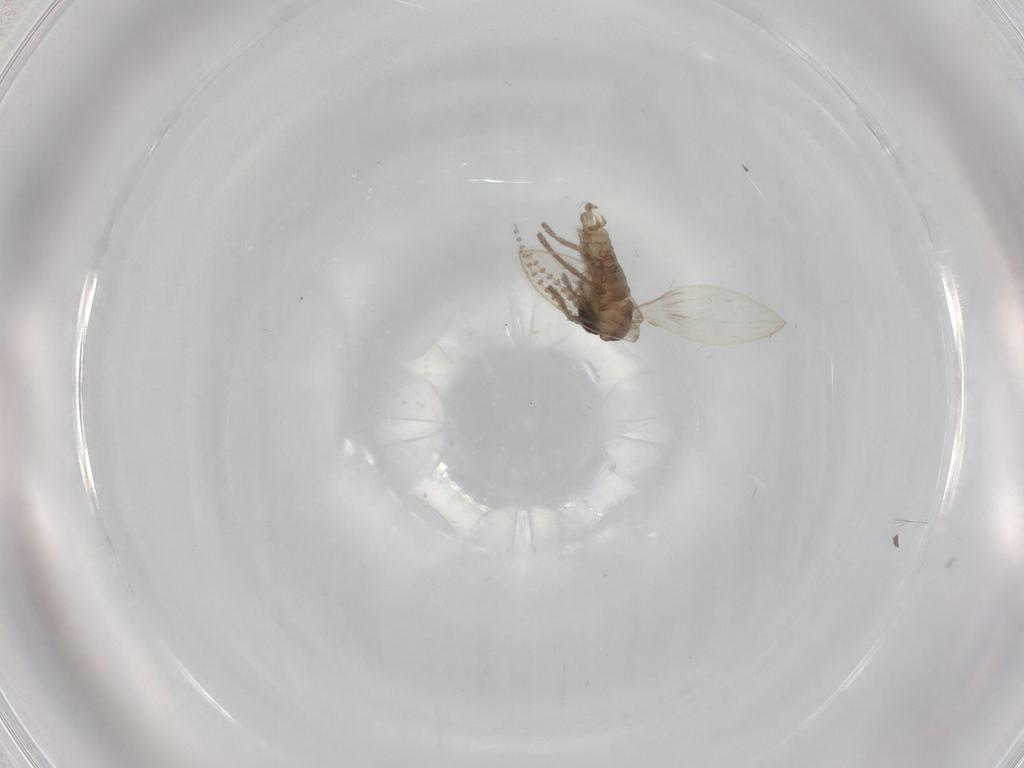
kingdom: Animalia
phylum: Arthropoda
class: Insecta
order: Diptera
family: Psychodidae
